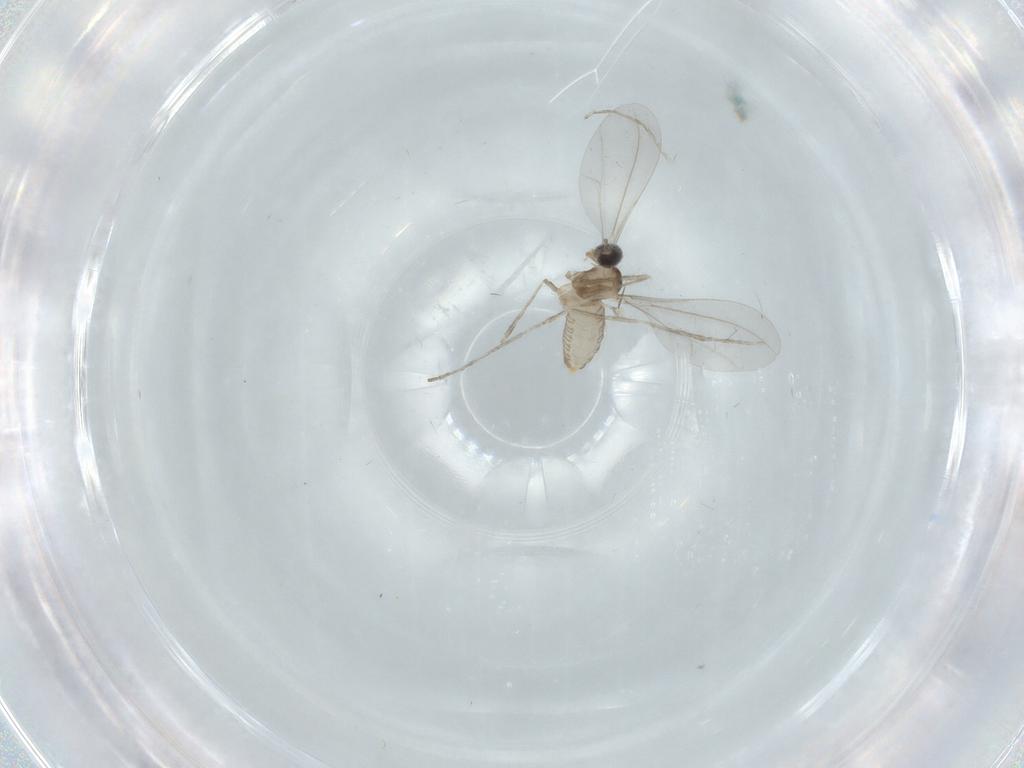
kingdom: Animalia
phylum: Arthropoda
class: Insecta
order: Diptera
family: Cecidomyiidae
